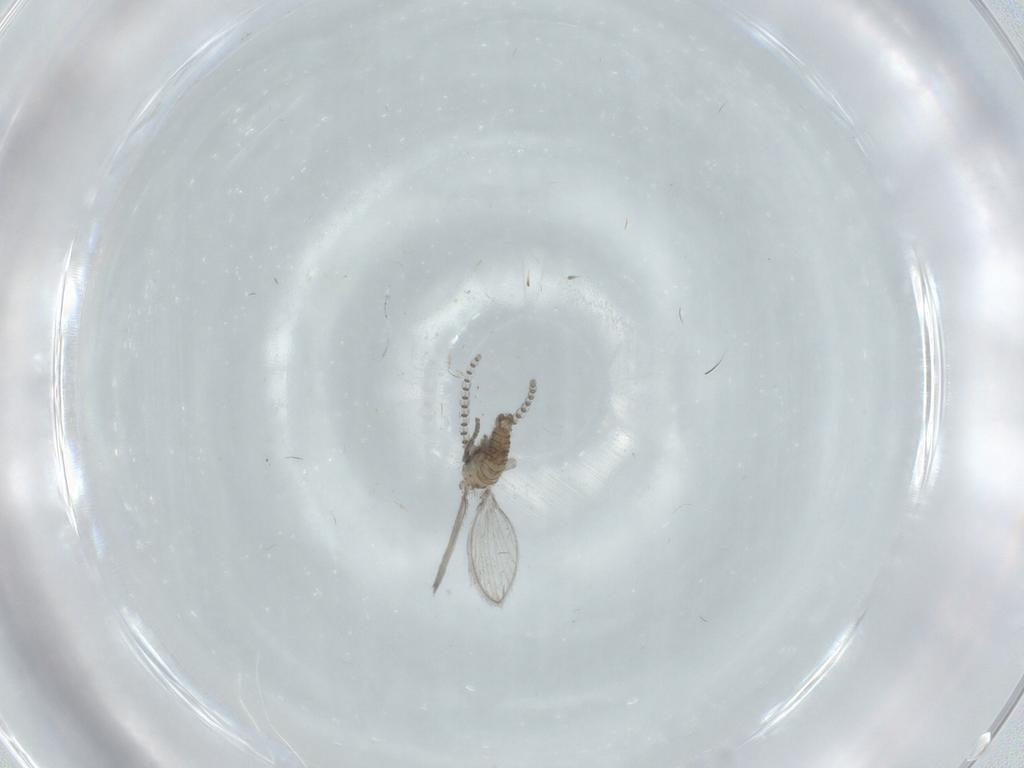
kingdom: Animalia
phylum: Arthropoda
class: Insecta
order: Diptera
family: Psychodidae
